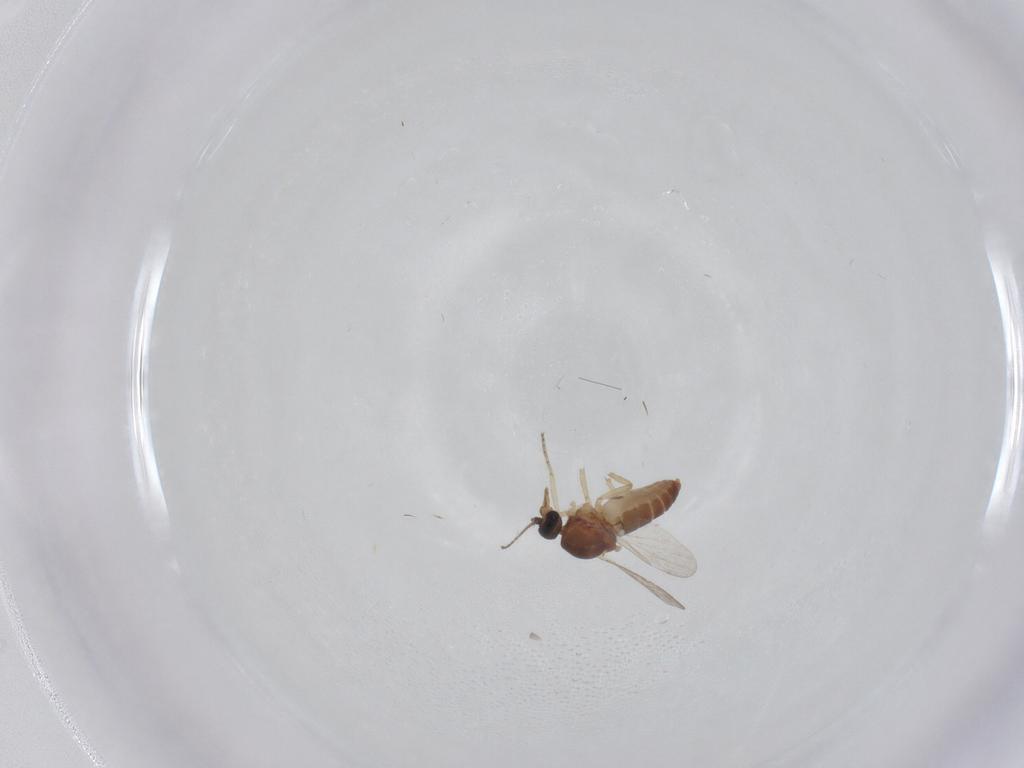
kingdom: Animalia
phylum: Arthropoda
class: Insecta
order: Diptera
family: Ceratopogonidae
